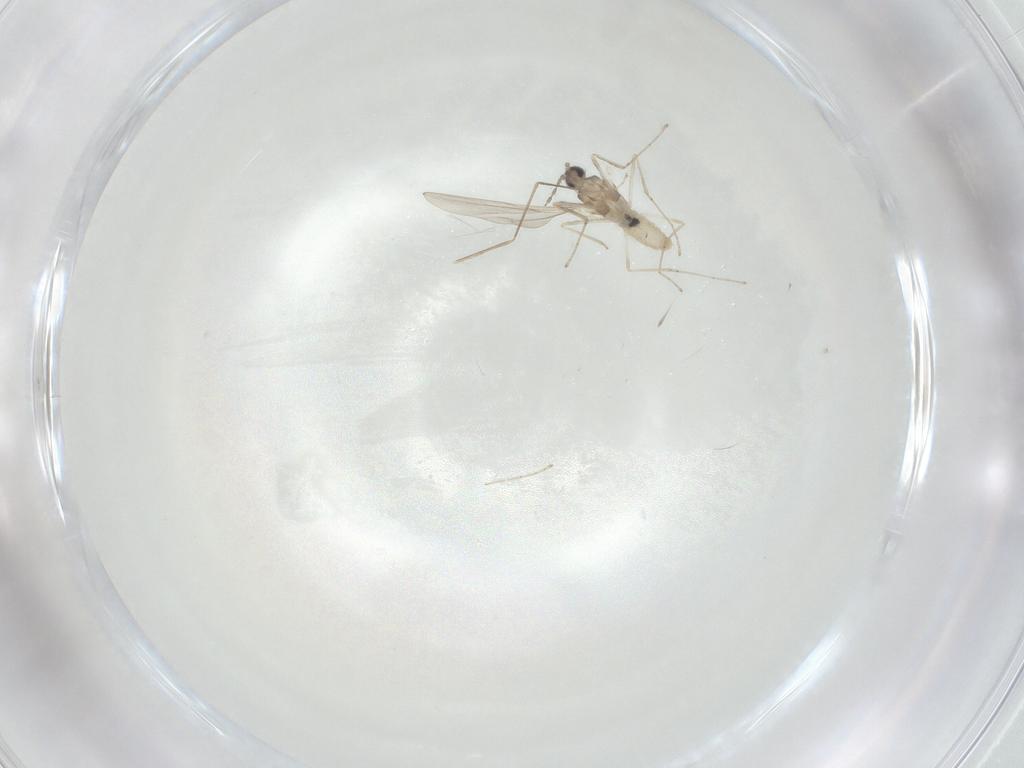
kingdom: Animalia
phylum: Arthropoda
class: Insecta
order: Diptera
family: Cecidomyiidae
